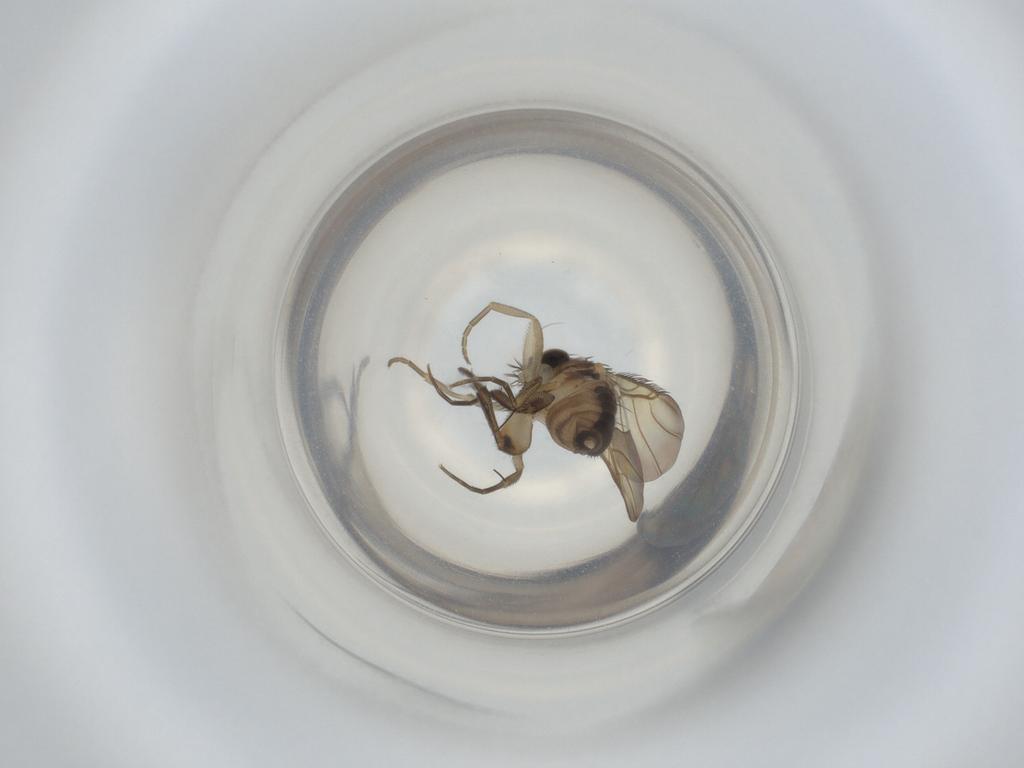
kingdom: Animalia
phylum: Arthropoda
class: Insecta
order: Diptera
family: Phoridae
